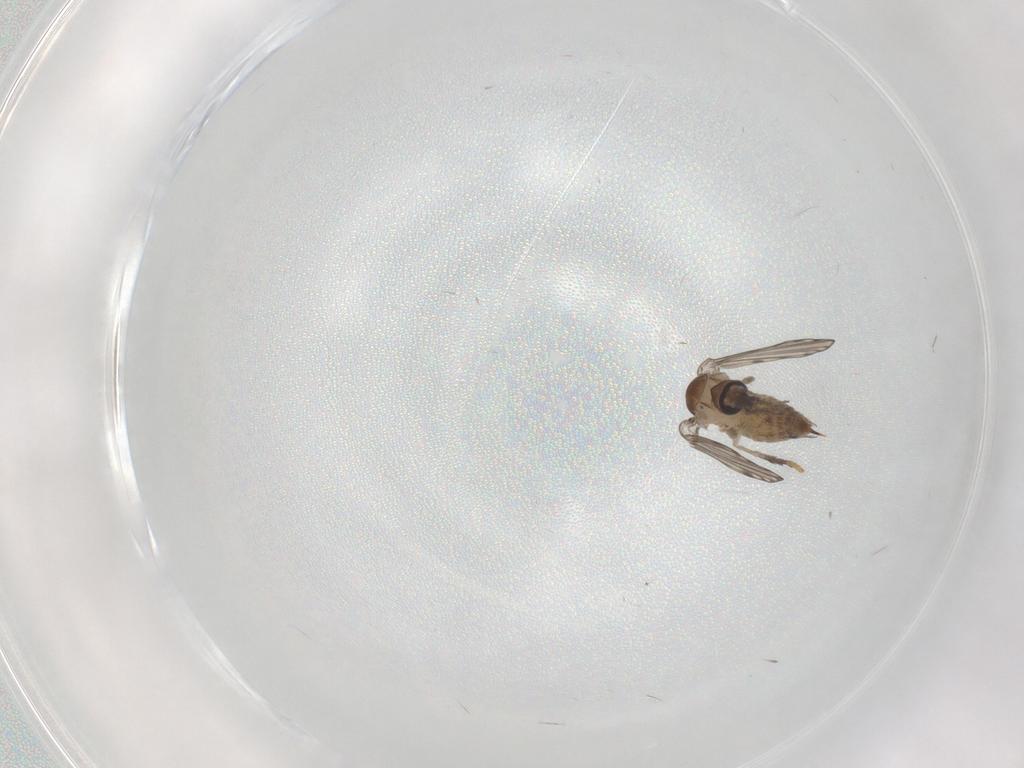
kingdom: Animalia
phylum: Arthropoda
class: Insecta
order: Diptera
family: Psychodidae
